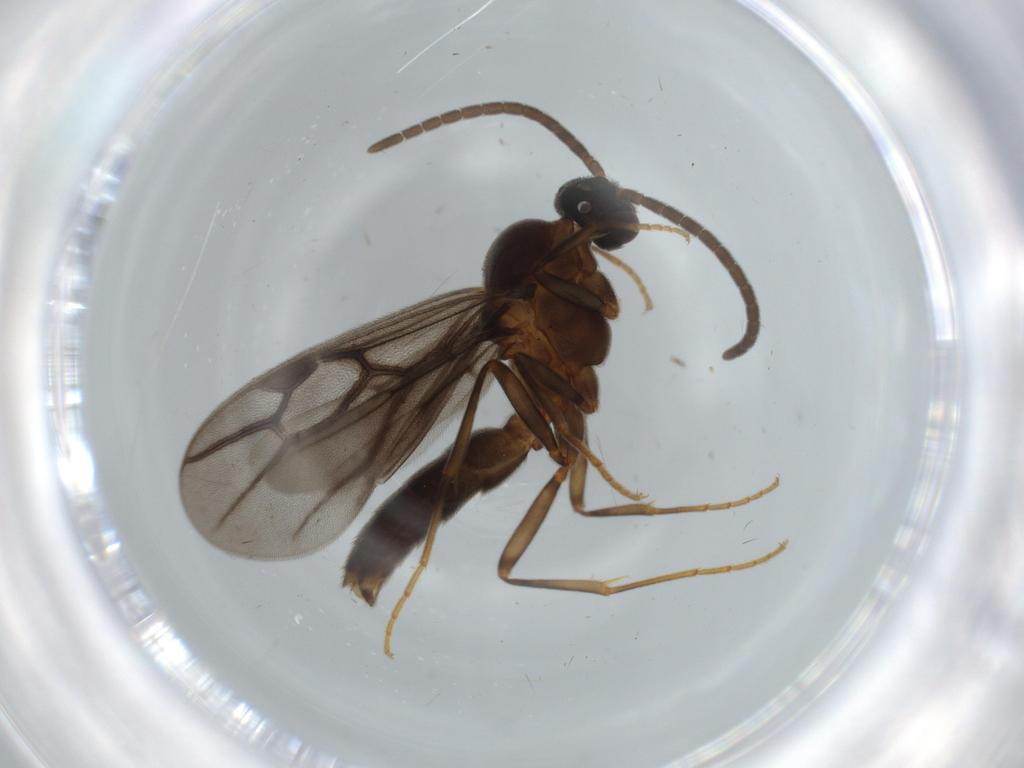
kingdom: Animalia
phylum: Arthropoda
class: Insecta
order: Hymenoptera
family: Formicidae
